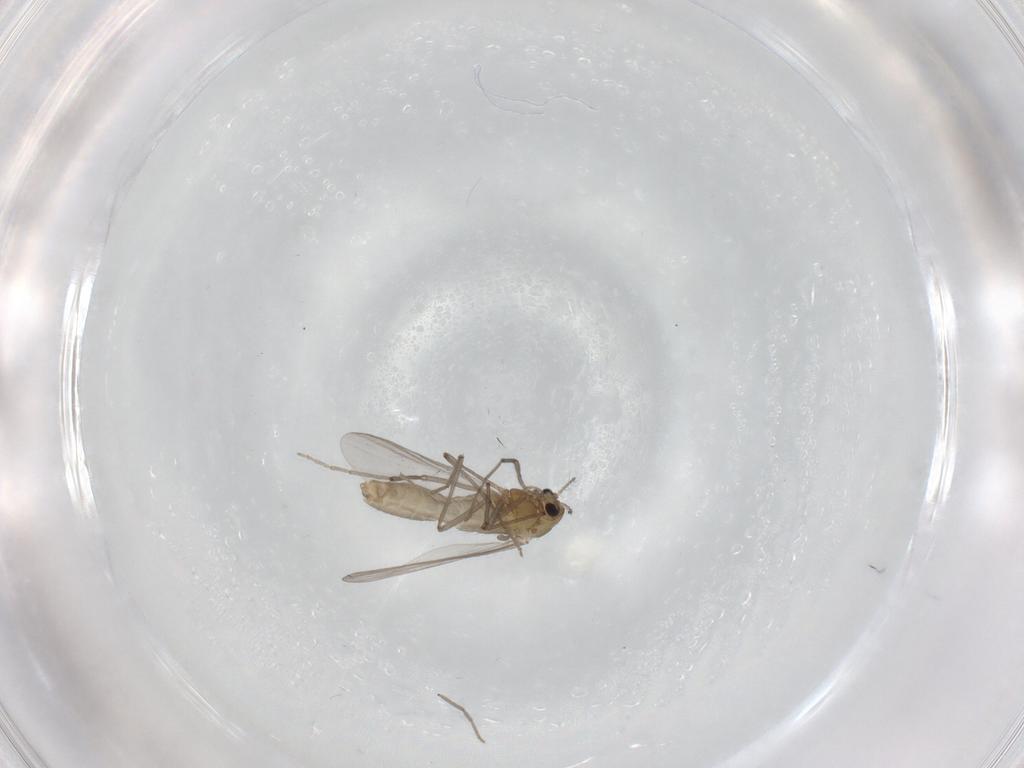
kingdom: Animalia
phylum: Arthropoda
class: Insecta
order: Diptera
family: Chironomidae
